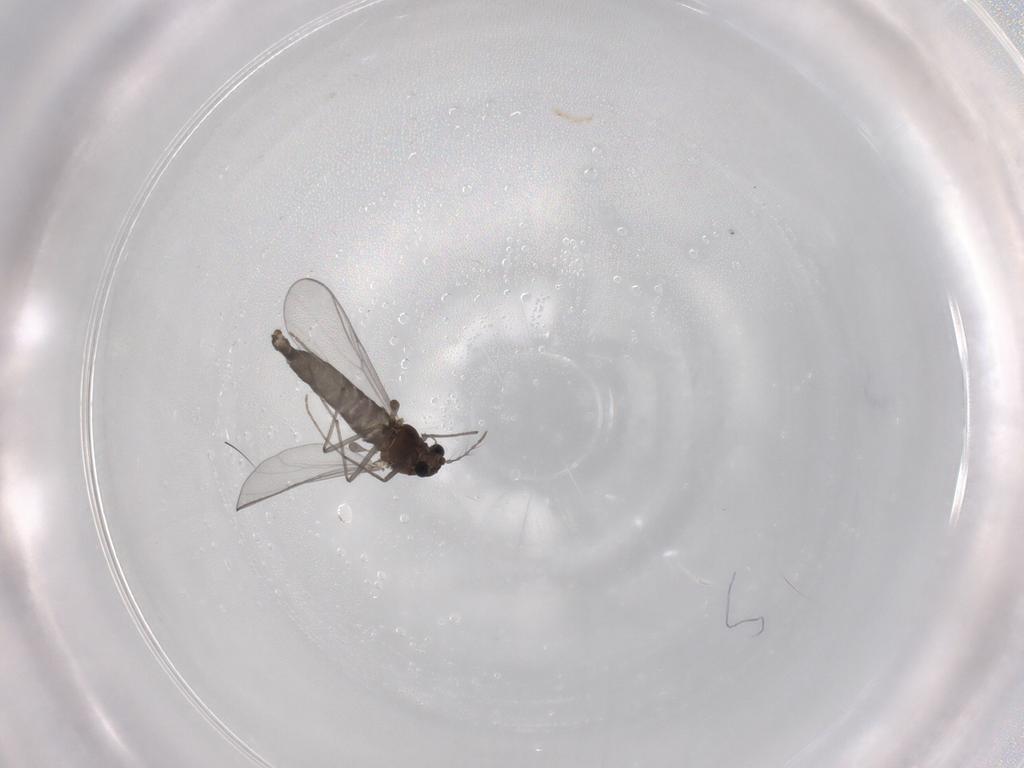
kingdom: Animalia
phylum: Arthropoda
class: Insecta
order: Diptera
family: Chironomidae
